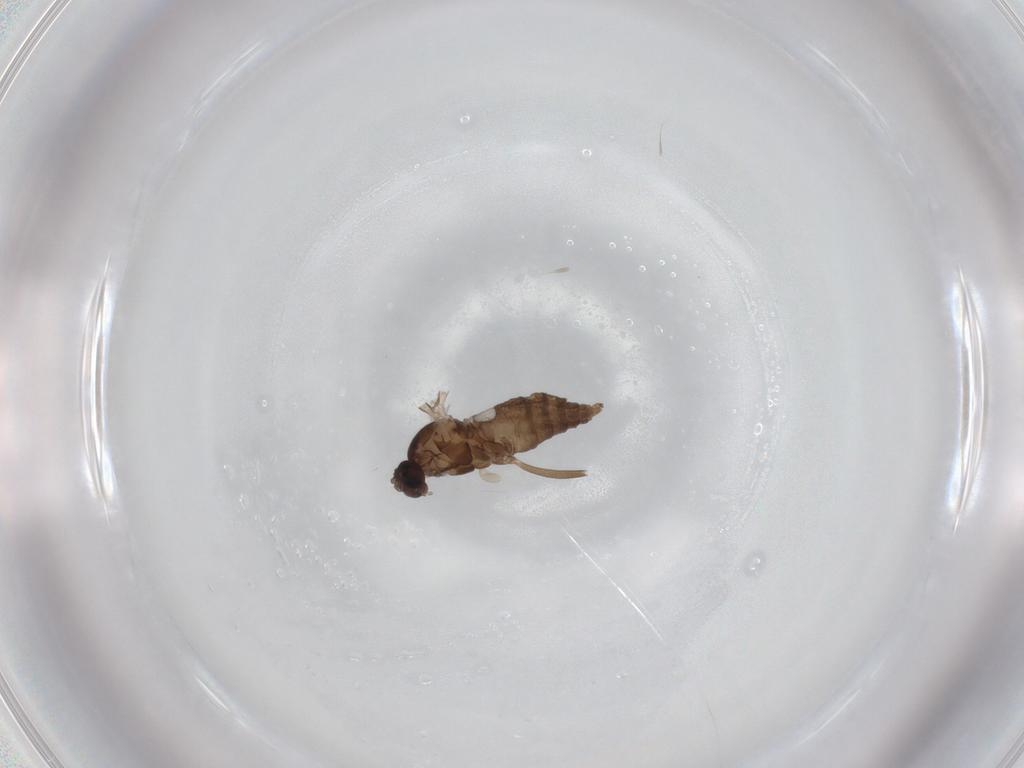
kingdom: Animalia
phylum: Arthropoda
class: Insecta
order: Diptera
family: Cecidomyiidae
